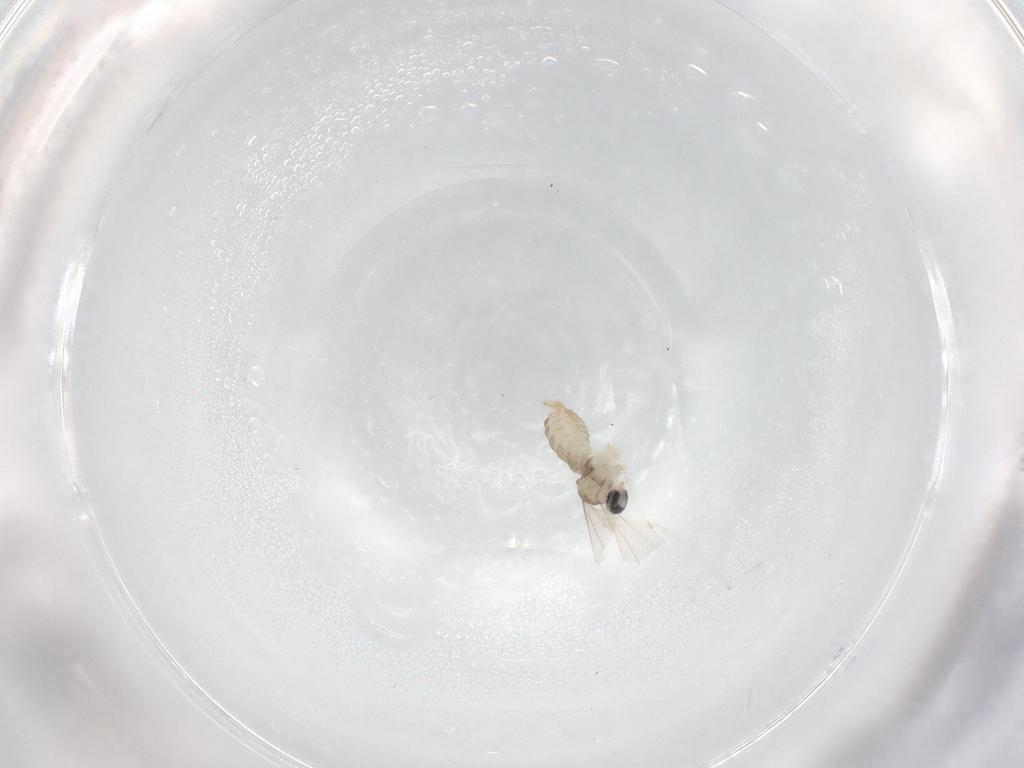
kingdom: Animalia
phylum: Arthropoda
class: Insecta
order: Diptera
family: Cecidomyiidae
